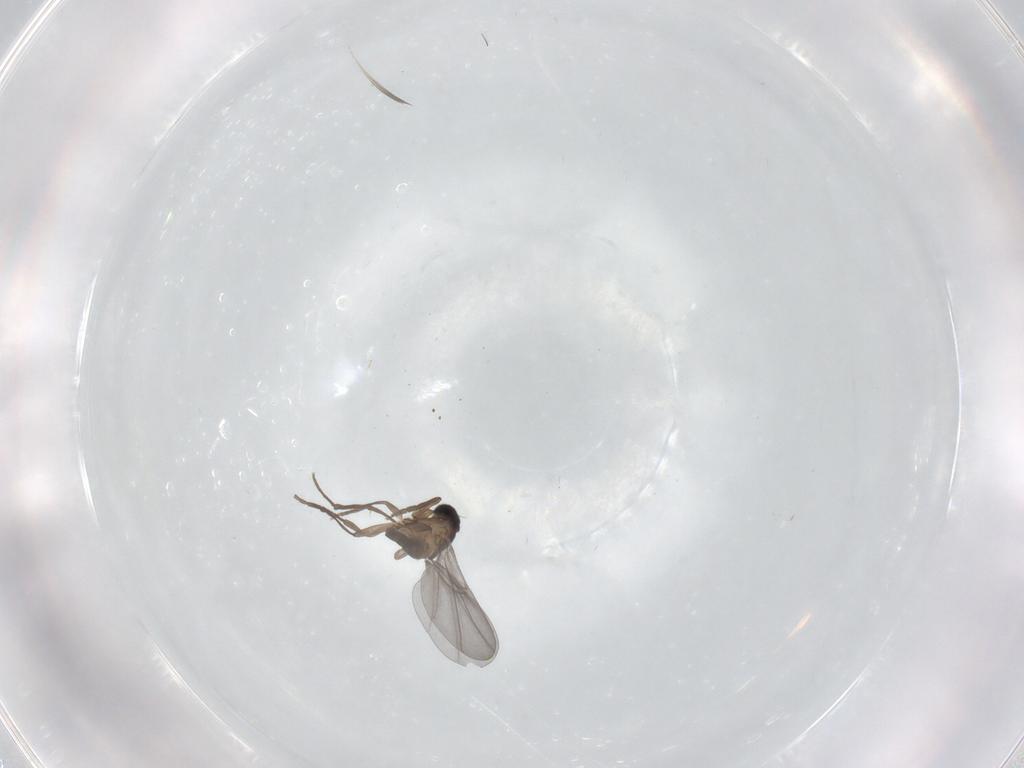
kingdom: Animalia
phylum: Arthropoda
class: Insecta
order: Diptera
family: Phoridae
